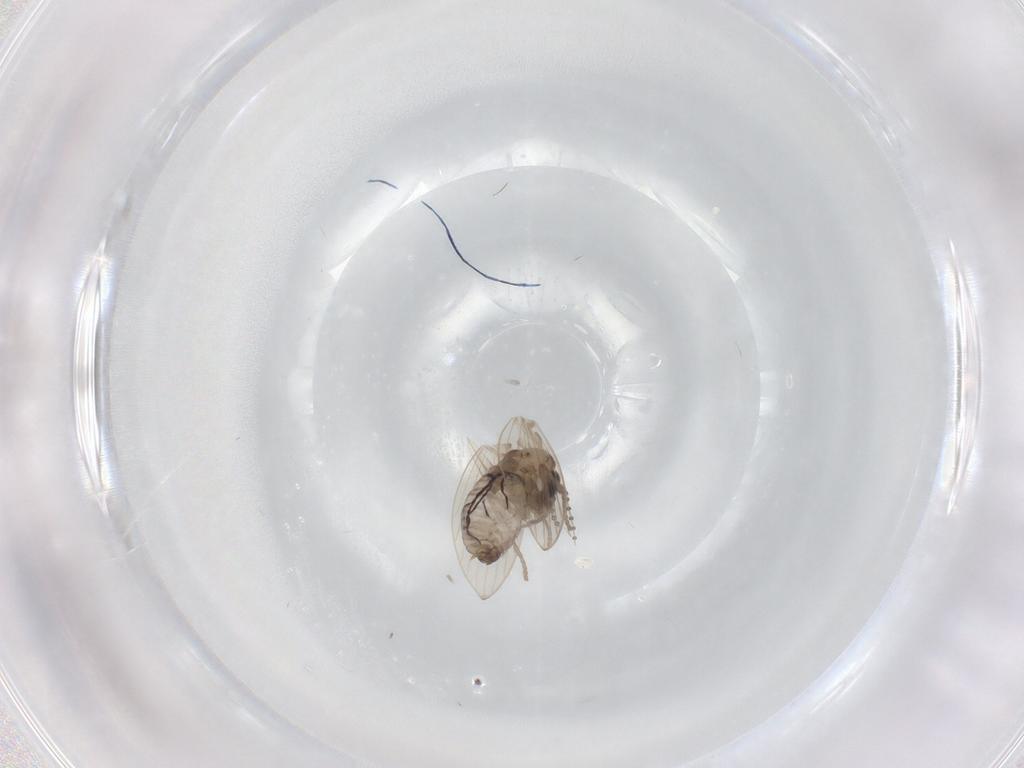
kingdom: Animalia
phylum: Arthropoda
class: Insecta
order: Diptera
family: Psychodidae
